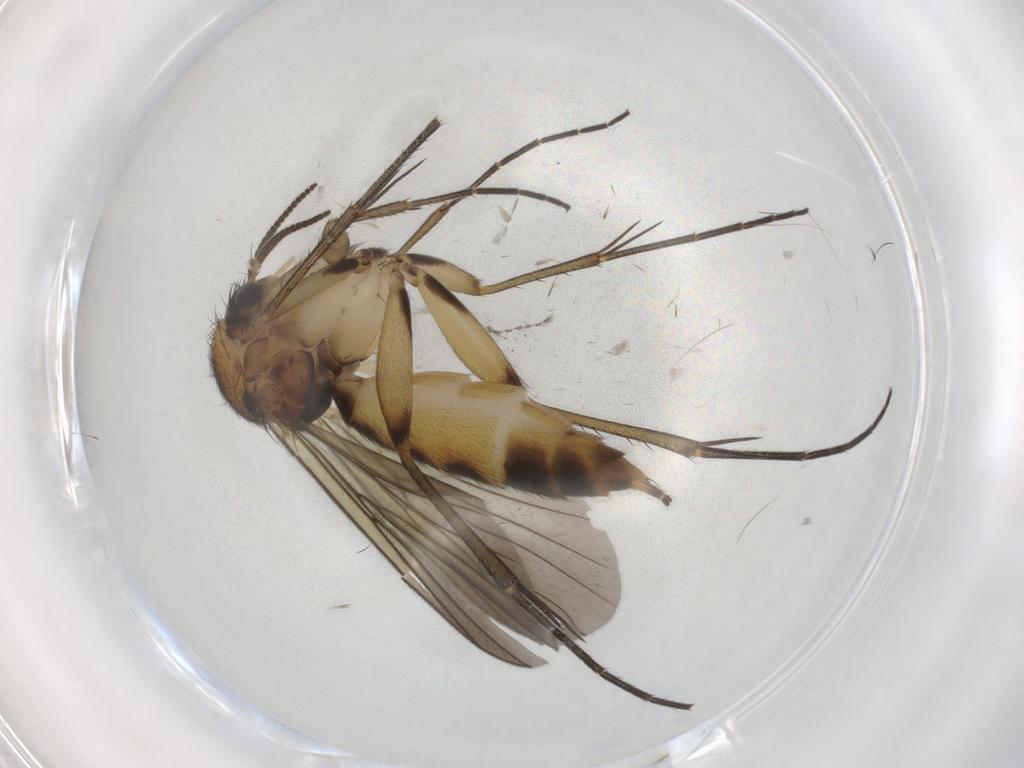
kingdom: Animalia
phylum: Arthropoda
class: Insecta
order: Diptera
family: Mycetophilidae
